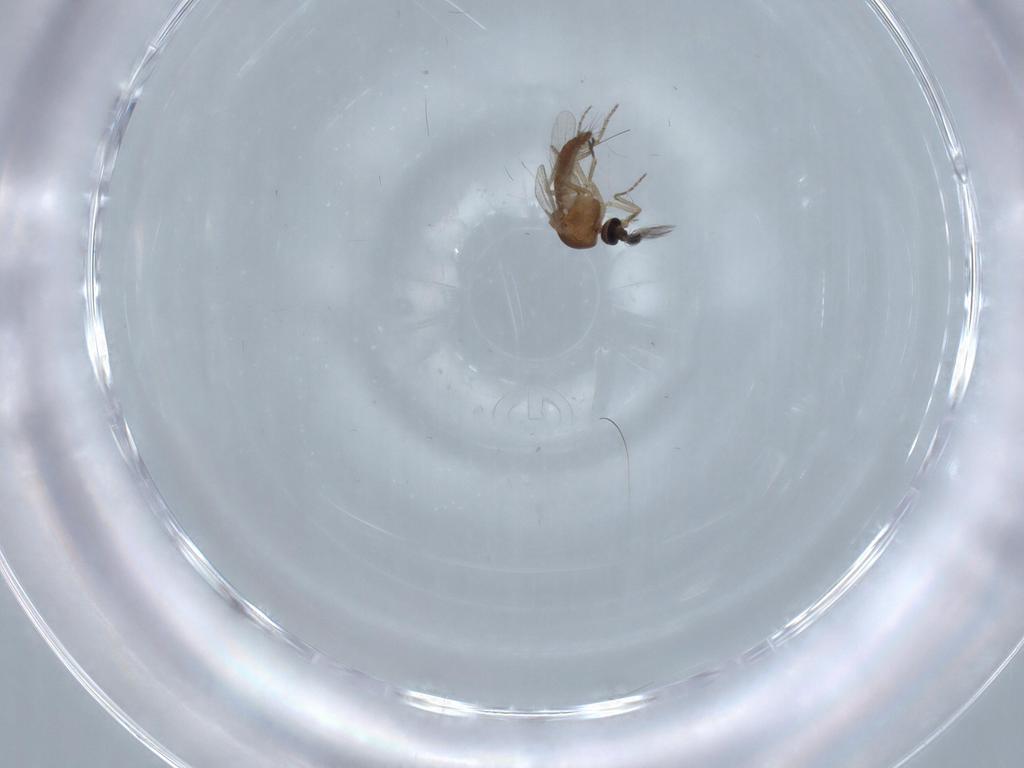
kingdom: Animalia
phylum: Arthropoda
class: Insecta
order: Diptera
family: Ceratopogonidae
